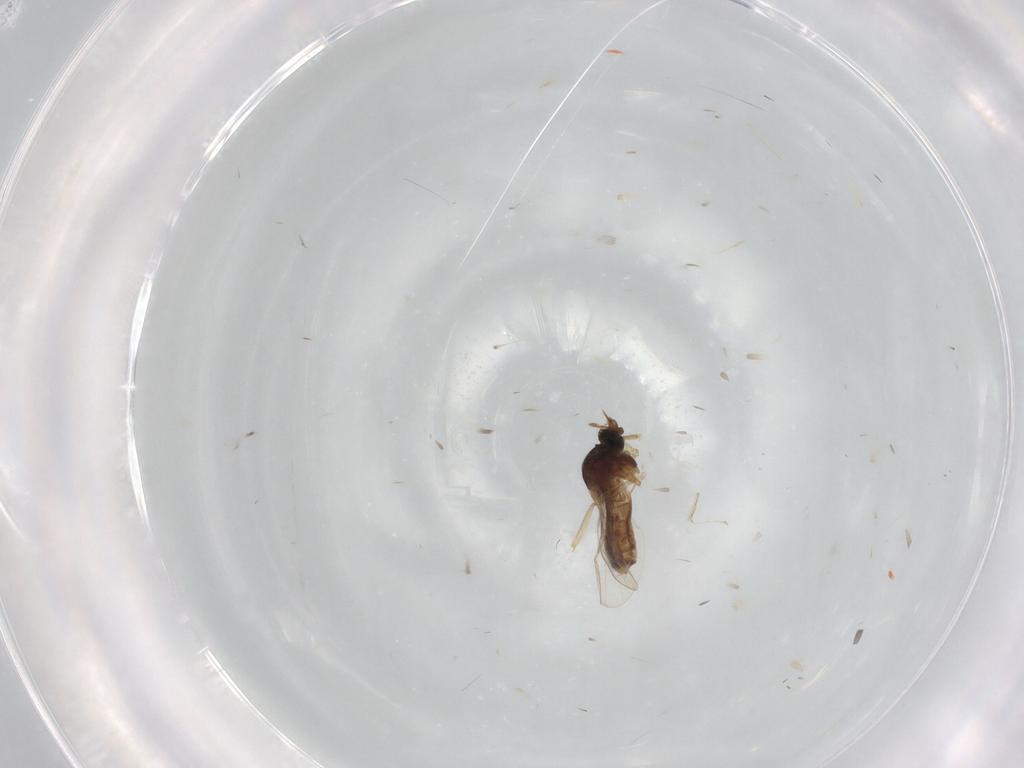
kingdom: Animalia
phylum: Arthropoda
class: Insecta
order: Diptera
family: Ceratopogonidae
